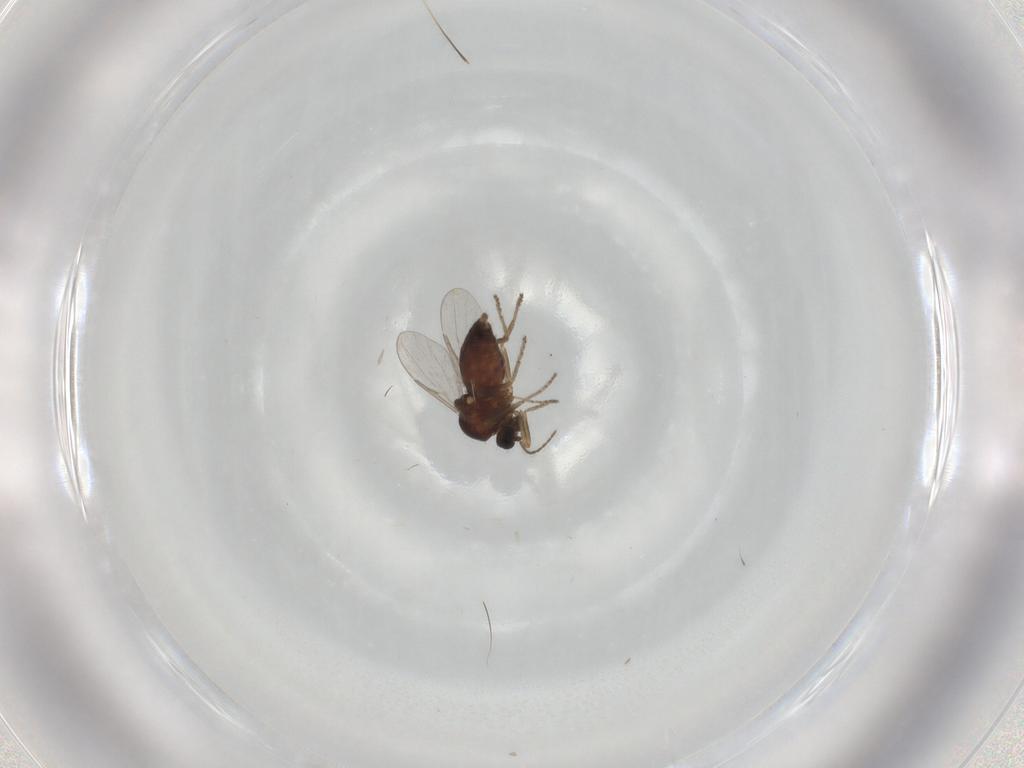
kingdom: Animalia
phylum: Arthropoda
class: Insecta
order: Diptera
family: Ceratopogonidae
